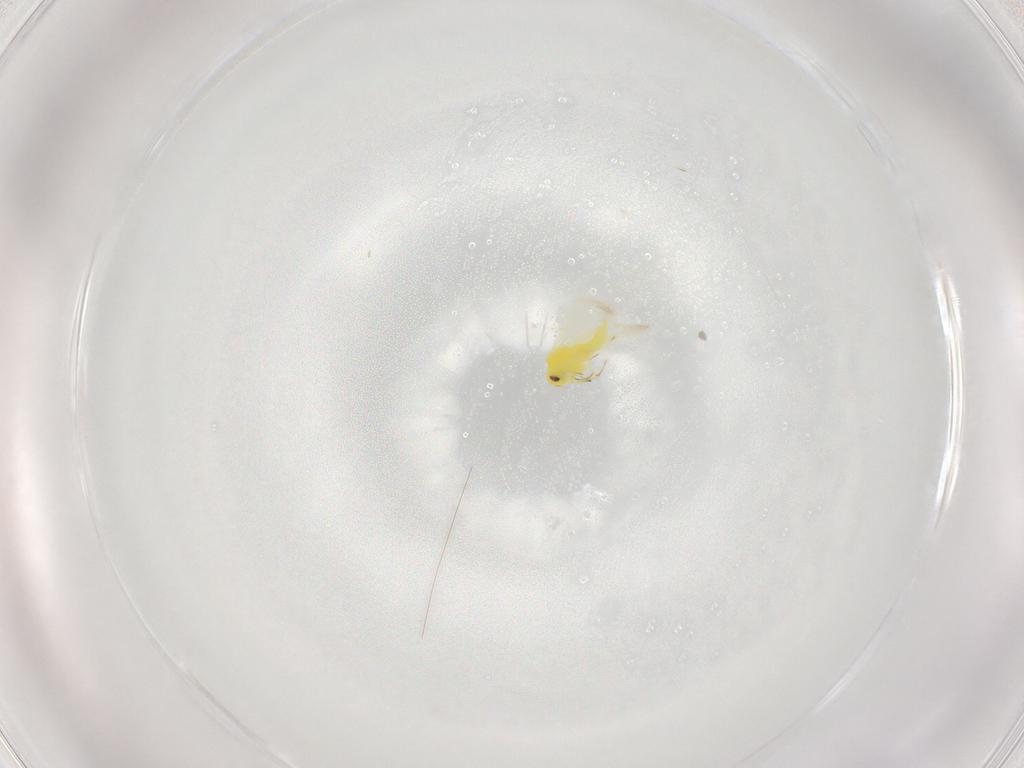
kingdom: Animalia
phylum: Arthropoda
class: Insecta
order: Hemiptera
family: Aleyrodidae
